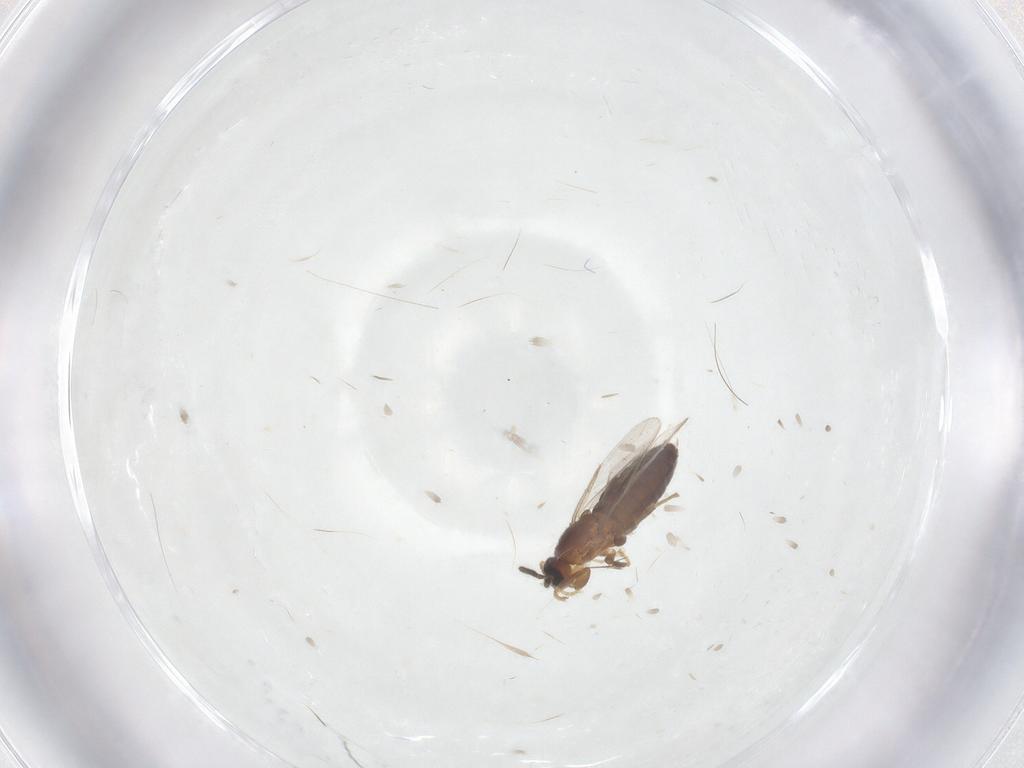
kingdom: Animalia
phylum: Arthropoda
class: Insecta
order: Diptera
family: Scatopsidae
